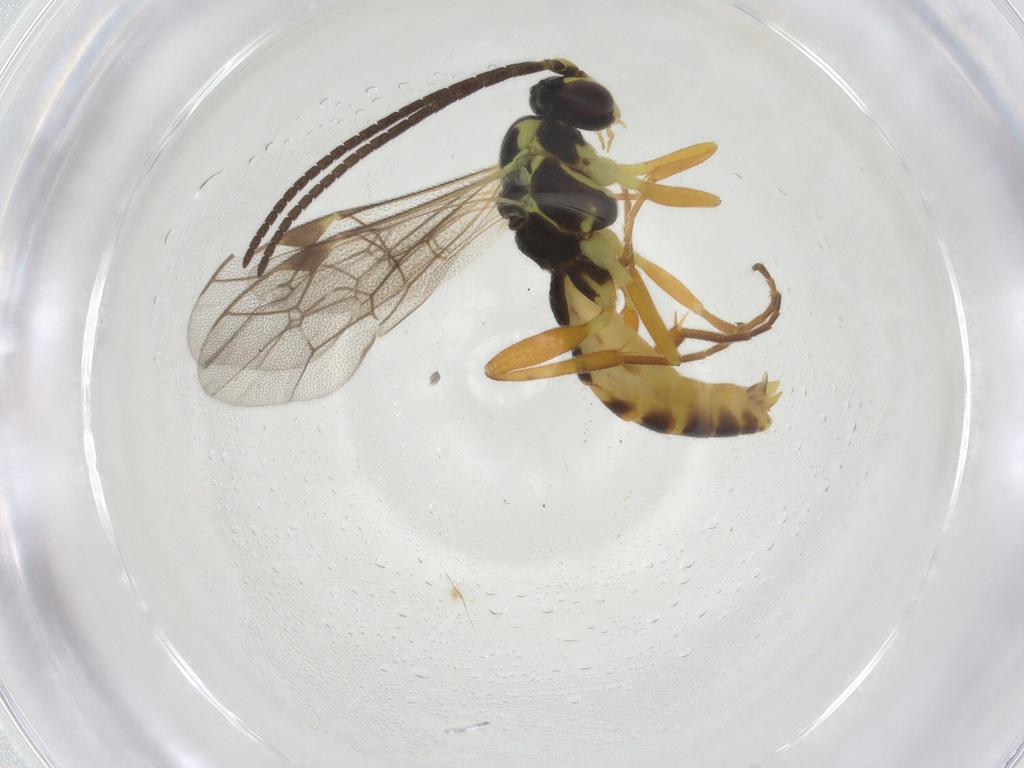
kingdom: Animalia
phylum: Arthropoda
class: Insecta
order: Hymenoptera
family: Ichneumonidae
